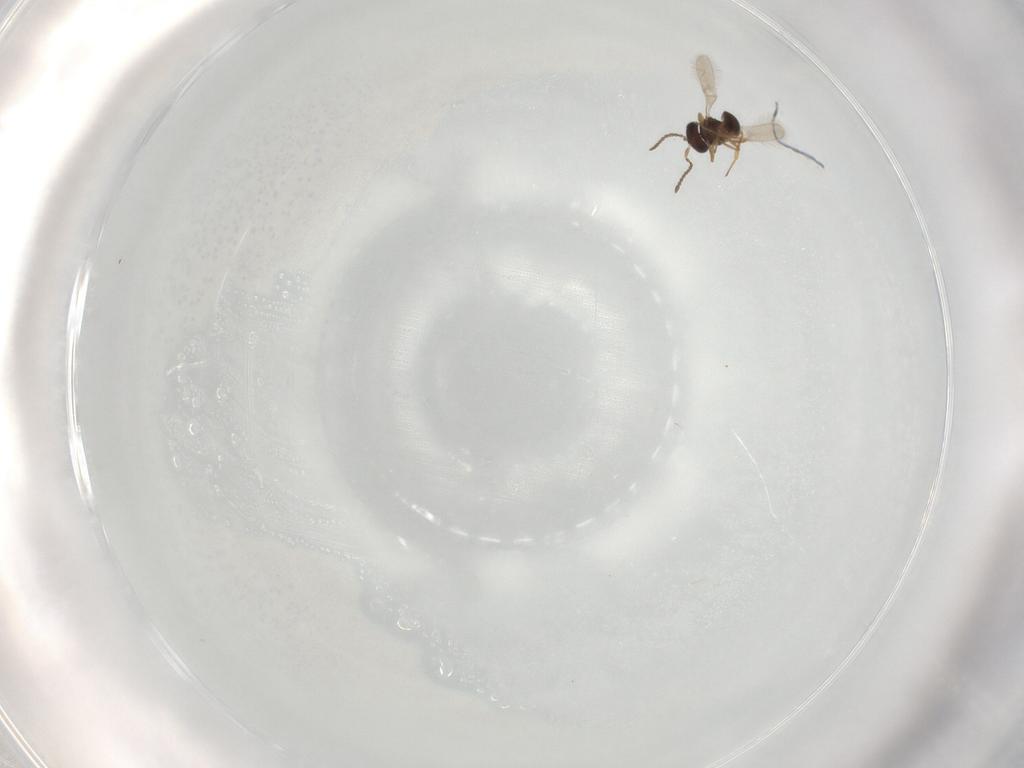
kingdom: Animalia
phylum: Arthropoda
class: Insecta
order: Hymenoptera
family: Scelionidae
